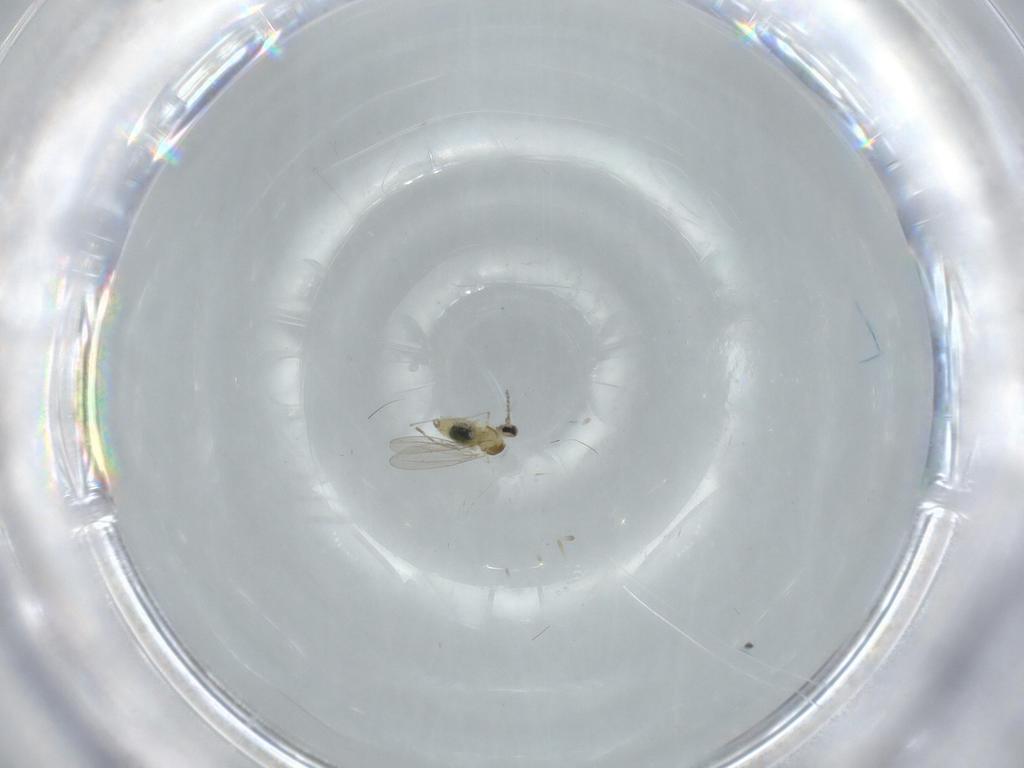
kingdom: Animalia
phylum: Arthropoda
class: Insecta
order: Diptera
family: Cecidomyiidae
